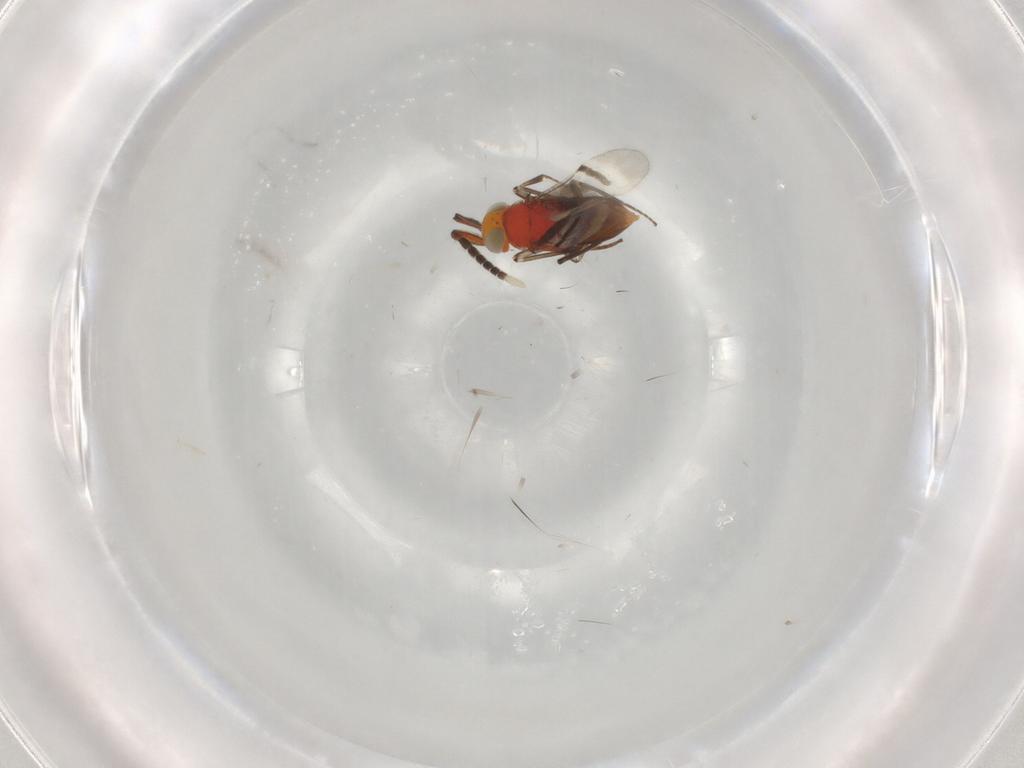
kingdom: Animalia
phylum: Arthropoda
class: Insecta
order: Hymenoptera
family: Encyrtidae
